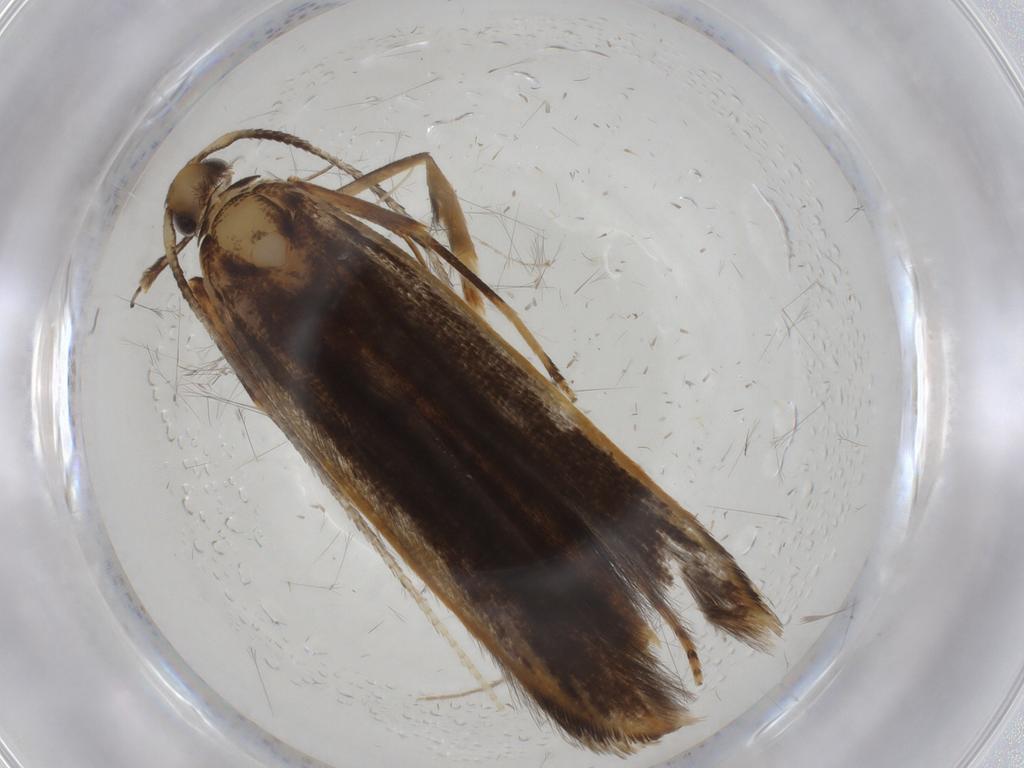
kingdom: Animalia
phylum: Arthropoda
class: Insecta
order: Lepidoptera
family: Pterolonchidae
